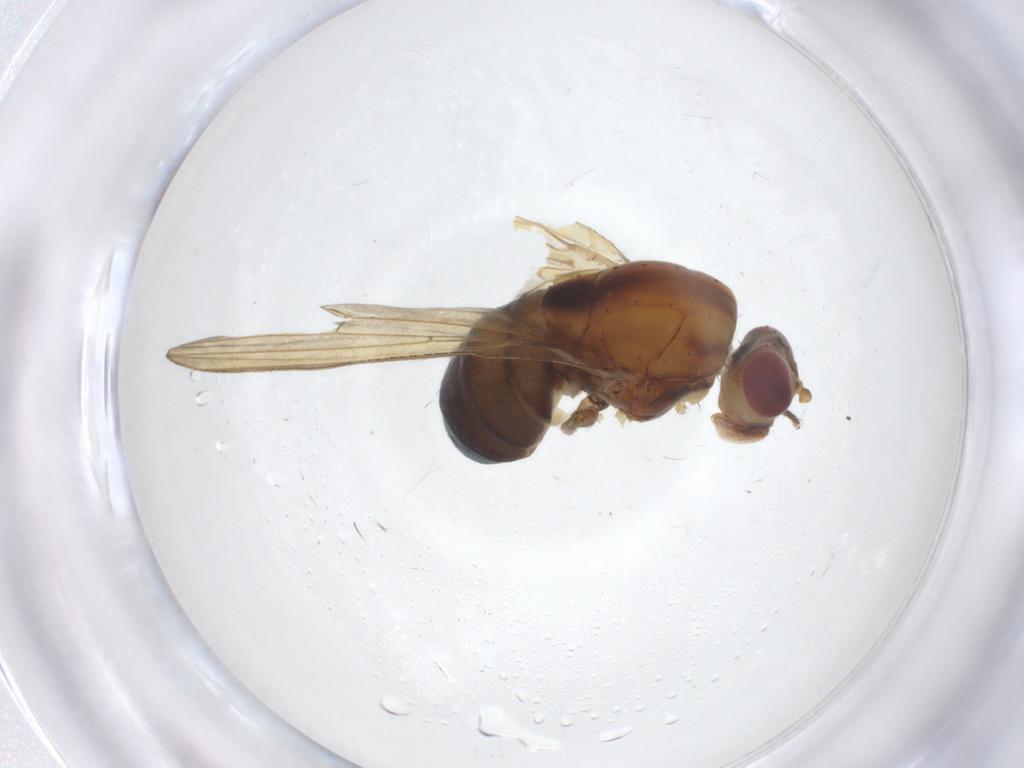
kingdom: Animalia
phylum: Arthropoda
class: Insecta
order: Diptera
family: Lauxaniidae
